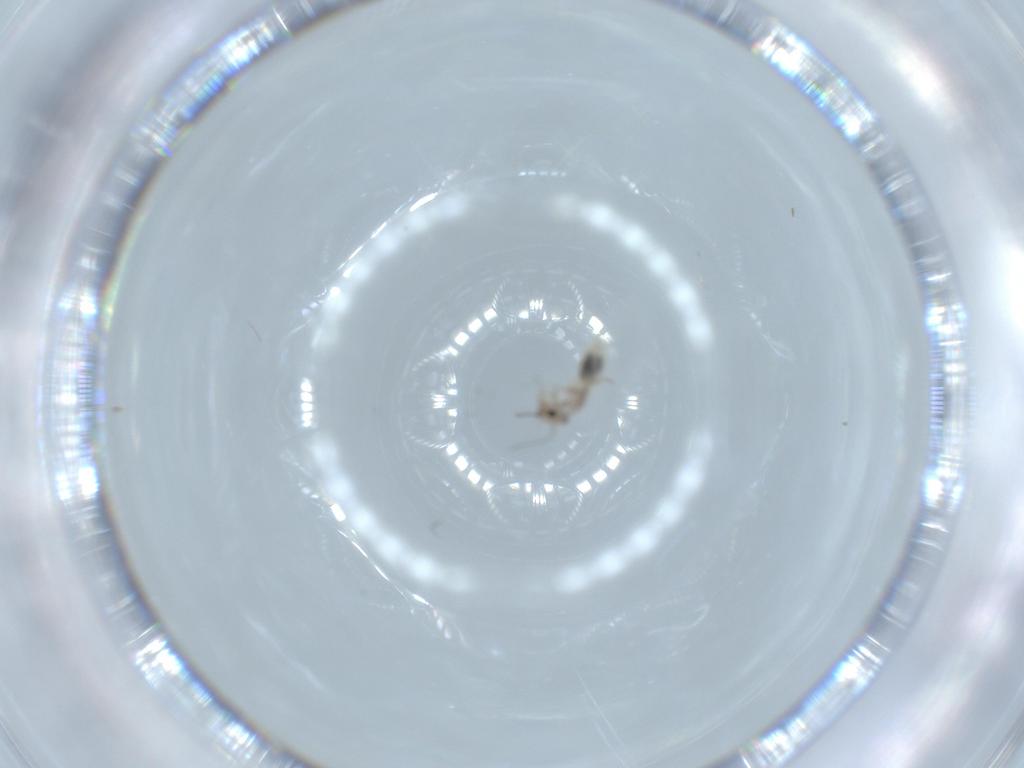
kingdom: Animalia
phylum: Arthropoda
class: Insecta
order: Psocodea
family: Lepidopsocidae
